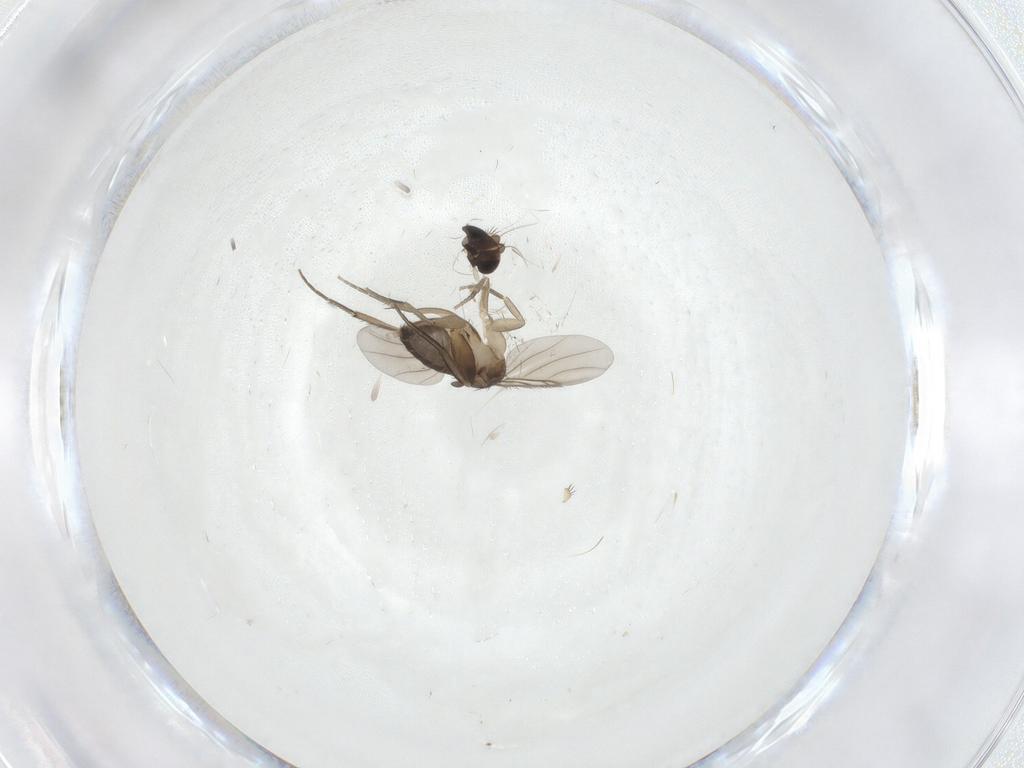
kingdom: Animalia
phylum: Arthropoda
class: Insecta
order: Diptera
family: Phoridae
